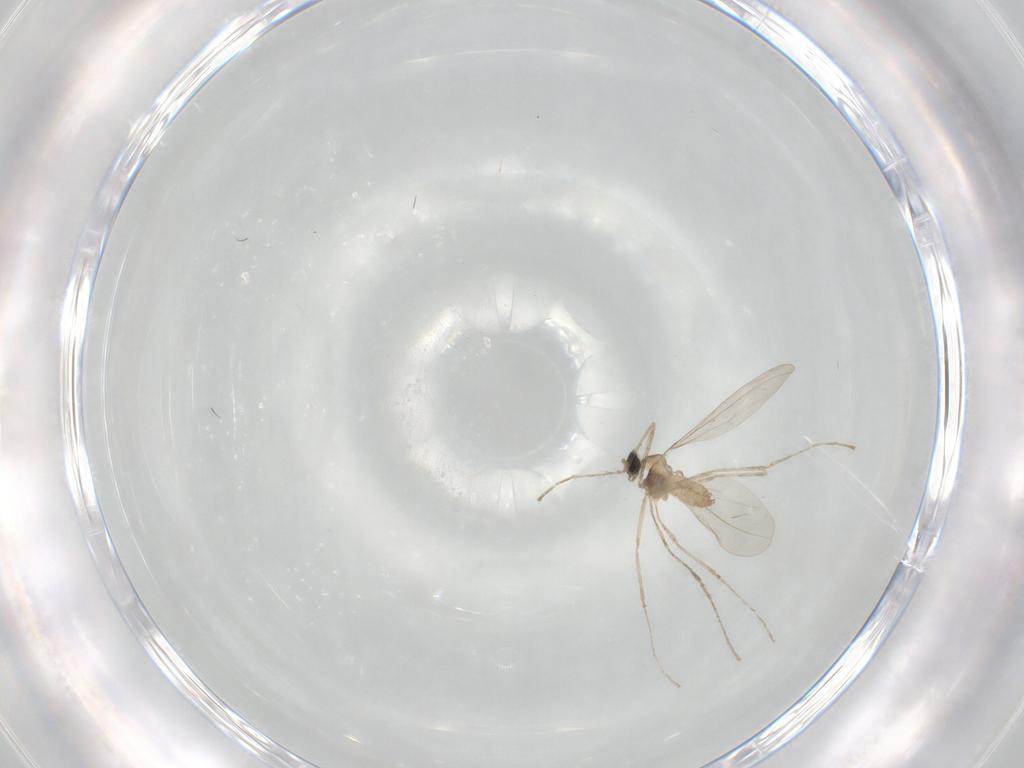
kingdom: Animalia
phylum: Arthropoda
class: Insecta
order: Diptera
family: Cecidomyiidae
